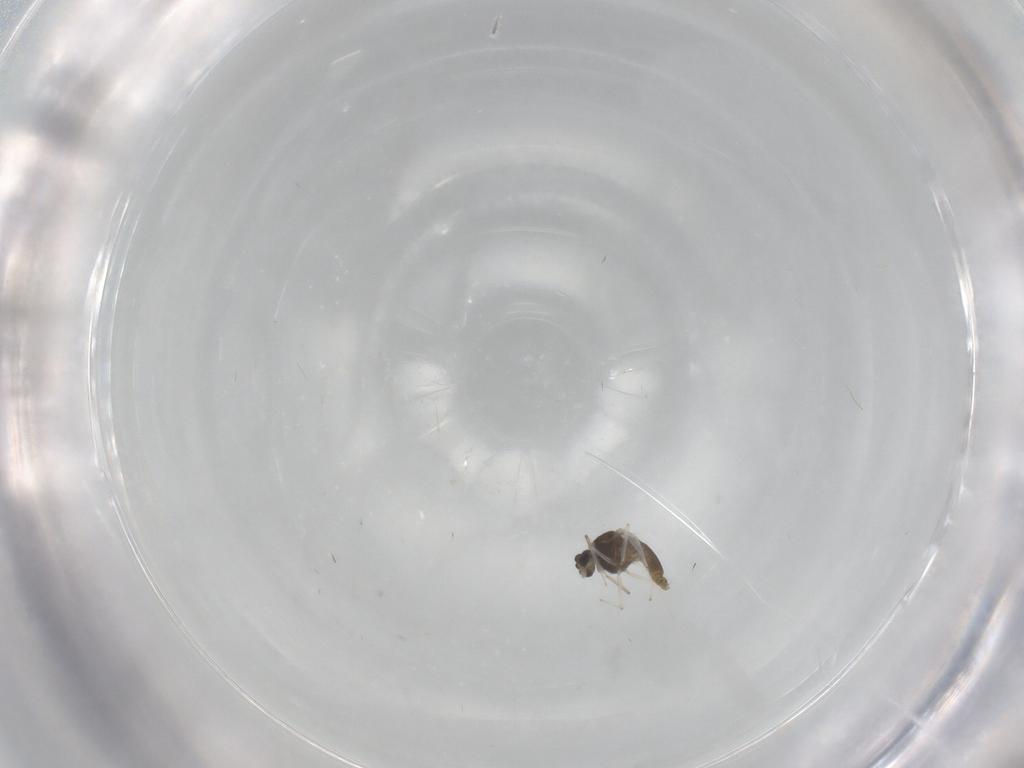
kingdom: Animalia
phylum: Arthropoda
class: Insecta
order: Diptera
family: Chironomidae
